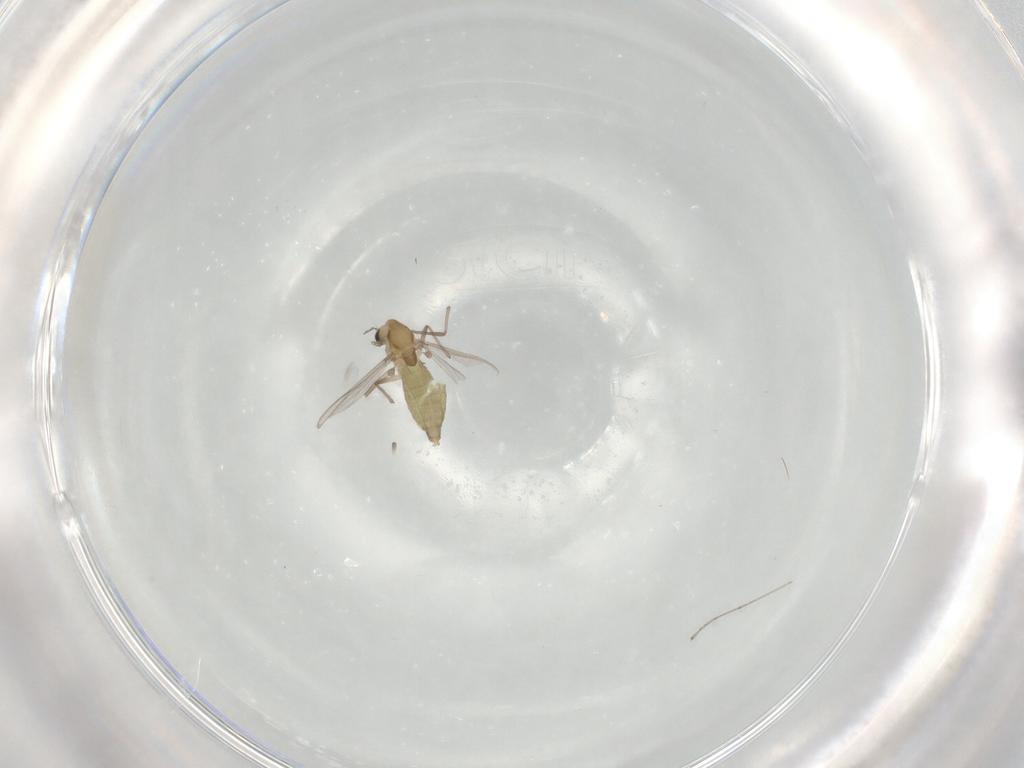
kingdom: Animalia
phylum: Arthropoda
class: Insecta
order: Diptera
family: Chironomidae
